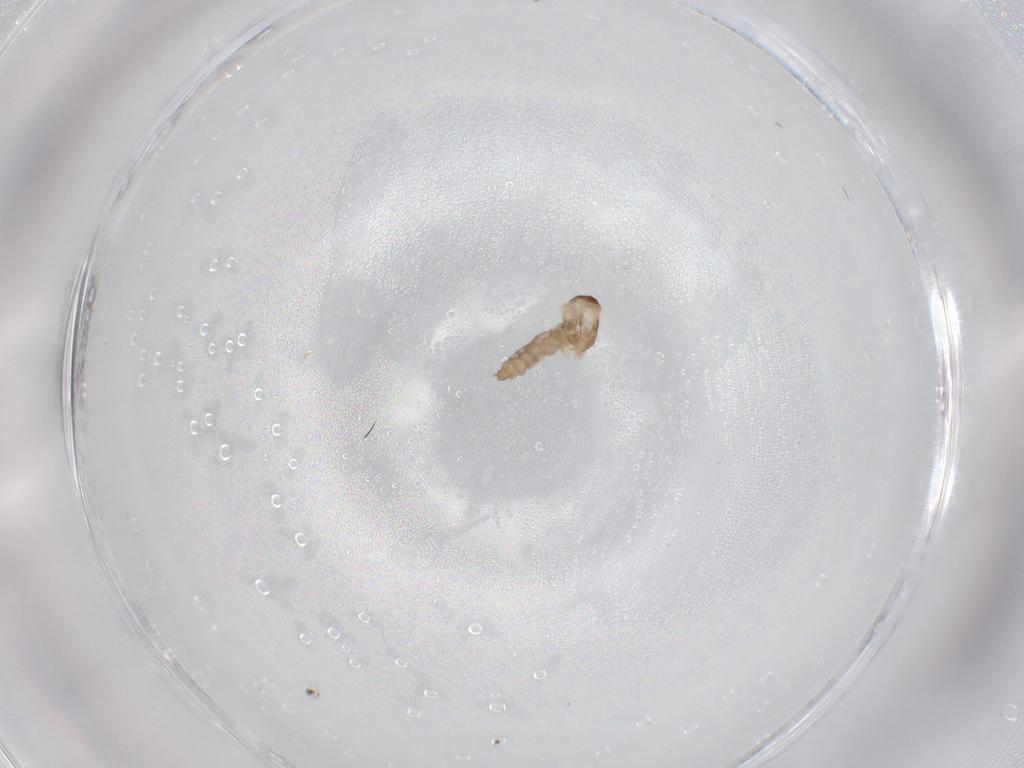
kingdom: Animalia
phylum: Arthropoda
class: Insecta
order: Diptera
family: Cecidomyiidae
